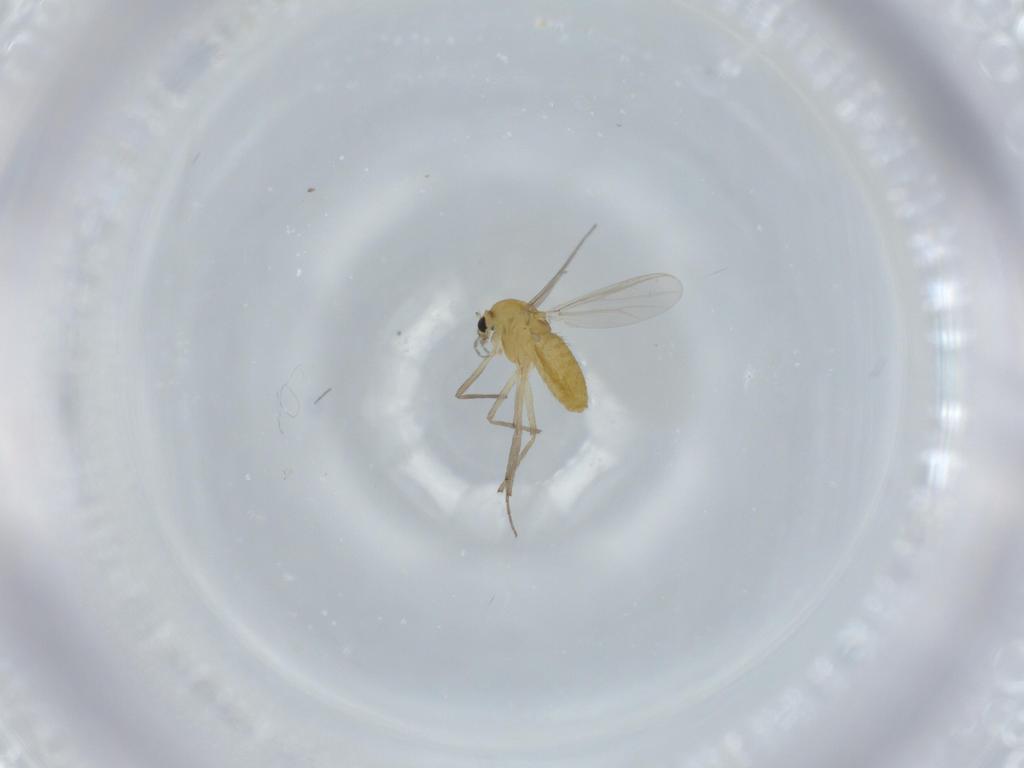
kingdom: Animalia
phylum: Arthropoda
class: Insecta
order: Diptera
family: Chironomidae
